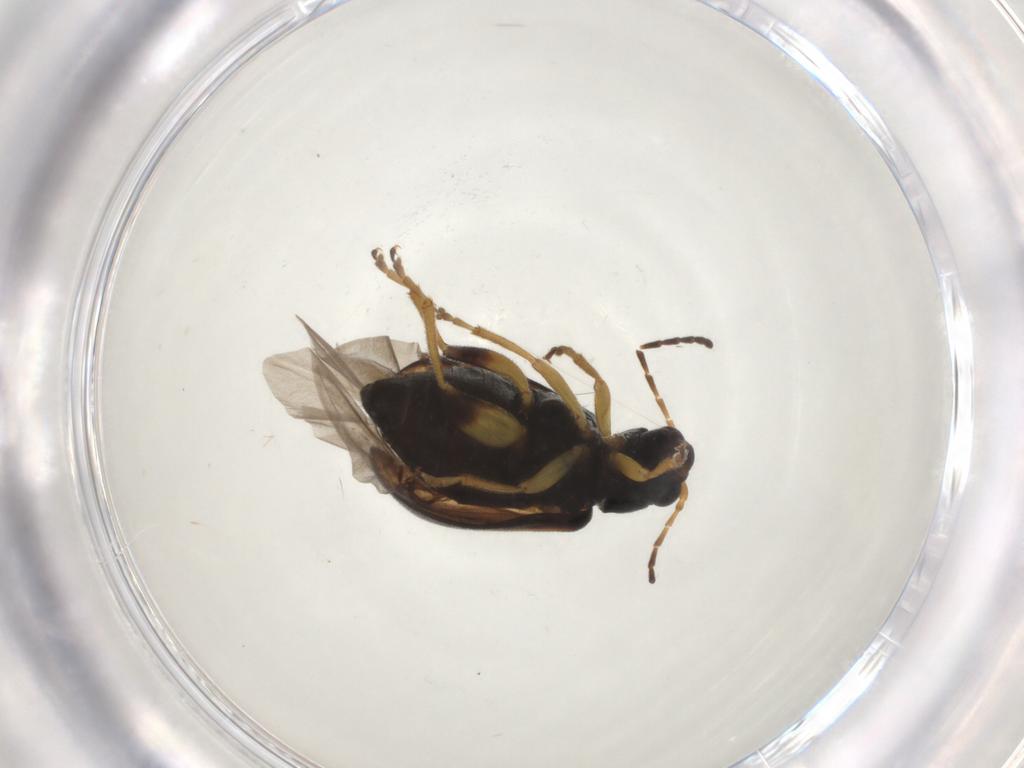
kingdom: Animalia
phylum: Arthropoda
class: Insecta
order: Coleoptera
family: Chrysomelidae
